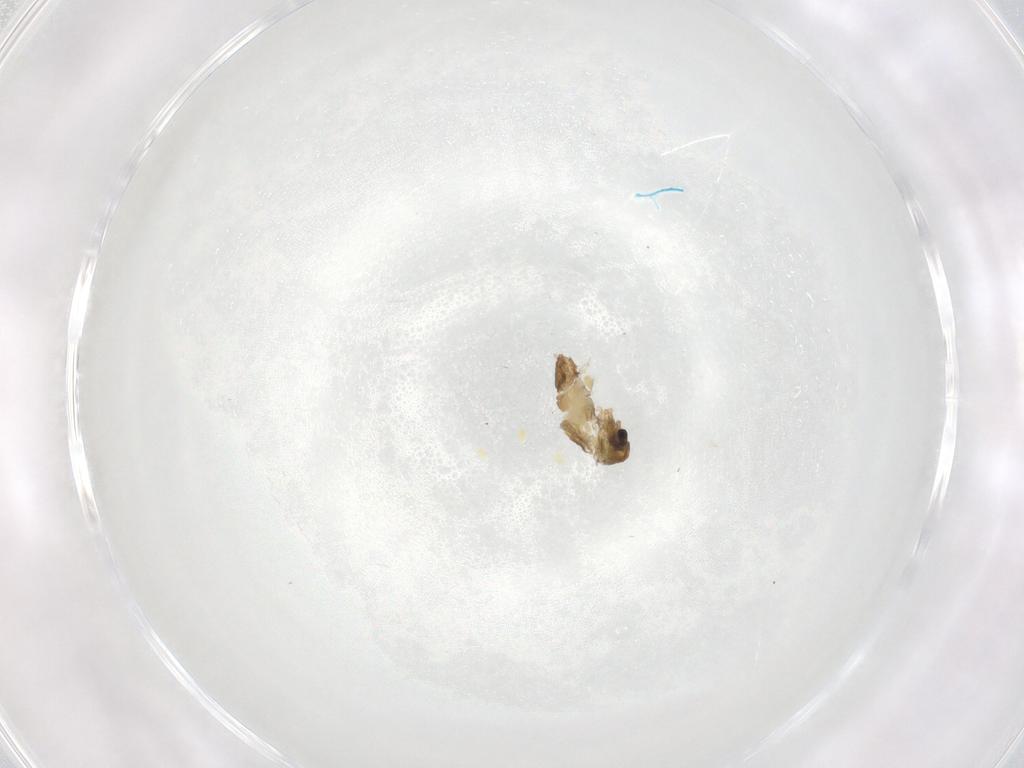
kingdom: Animalia
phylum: Arthropoda
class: Insecta
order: Diptera
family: Chironomidae
